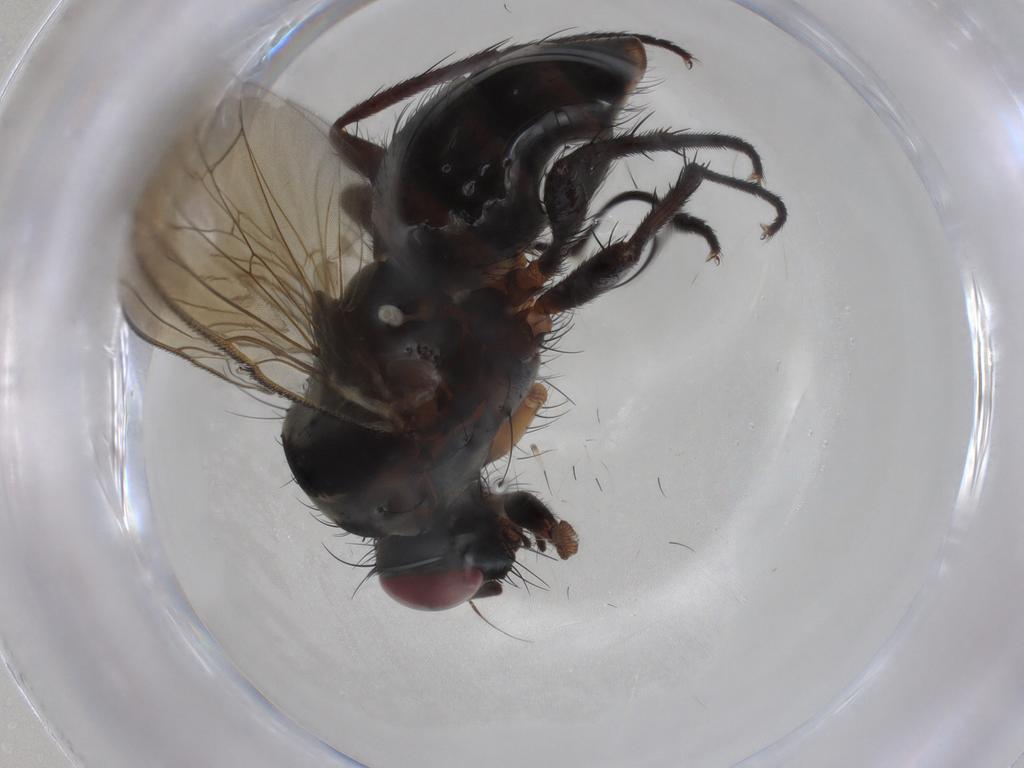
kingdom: Animalia
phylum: Arthropoda
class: Insecta
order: Diptera
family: Anthomyiidae
